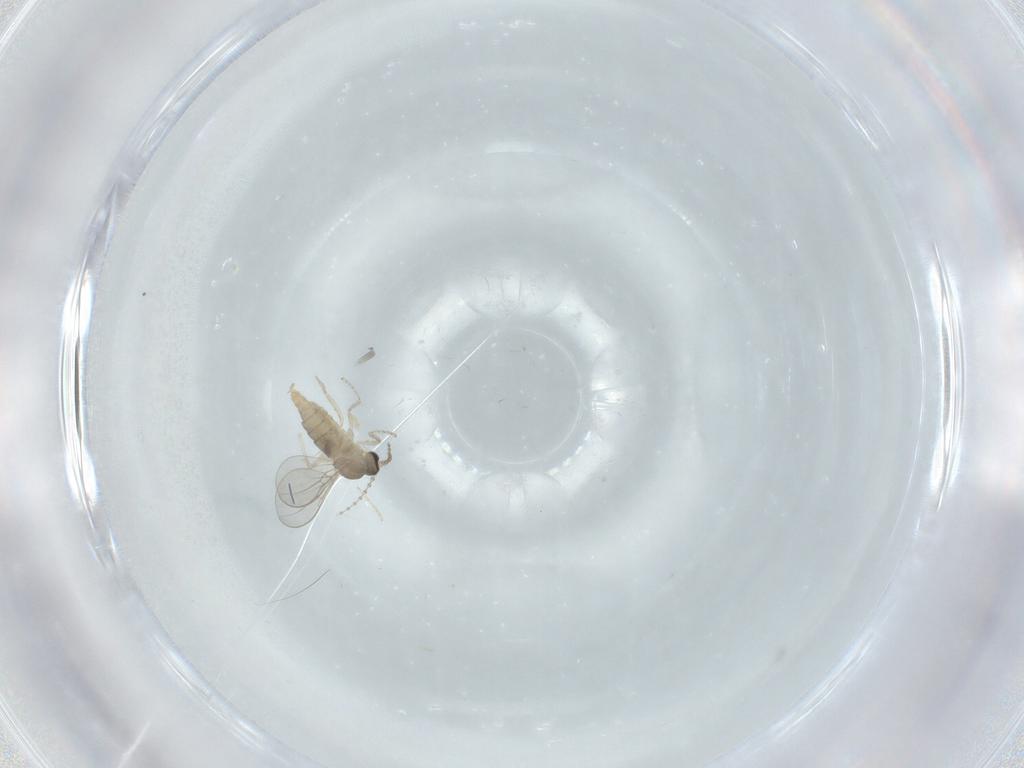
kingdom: Animalia
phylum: Arthropoda
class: Insecta
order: Diptera
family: Cecidomyiidae
